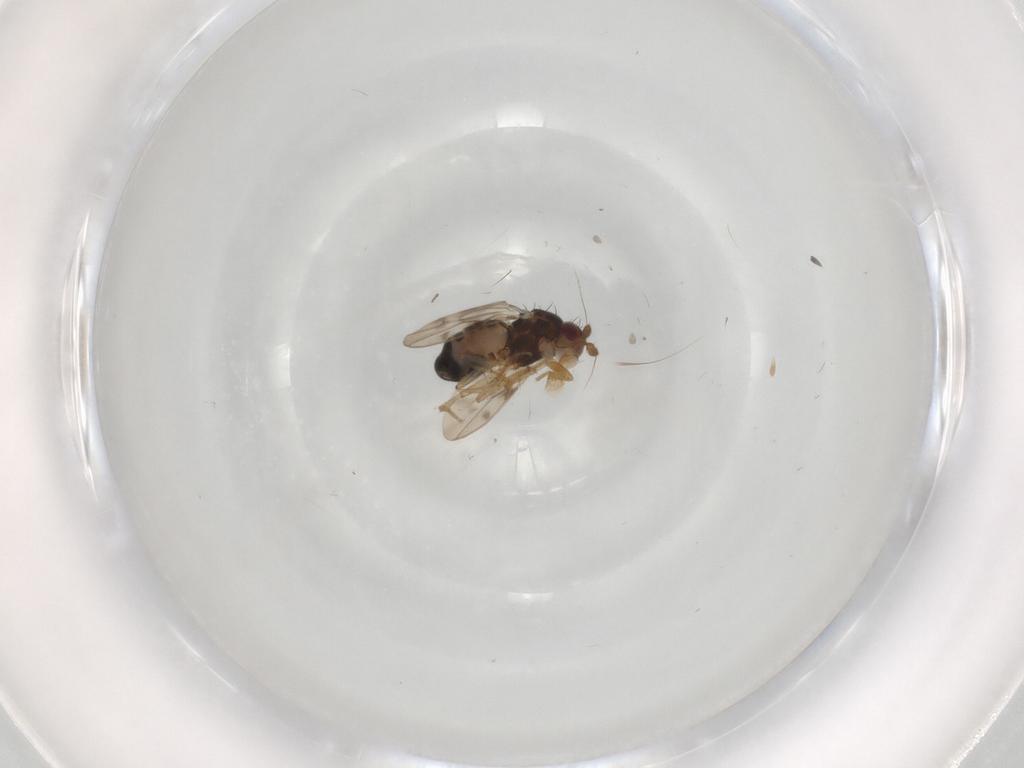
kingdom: Animalia
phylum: Arthropoda
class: Insecta
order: Diptera
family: Sphaeroceridae
